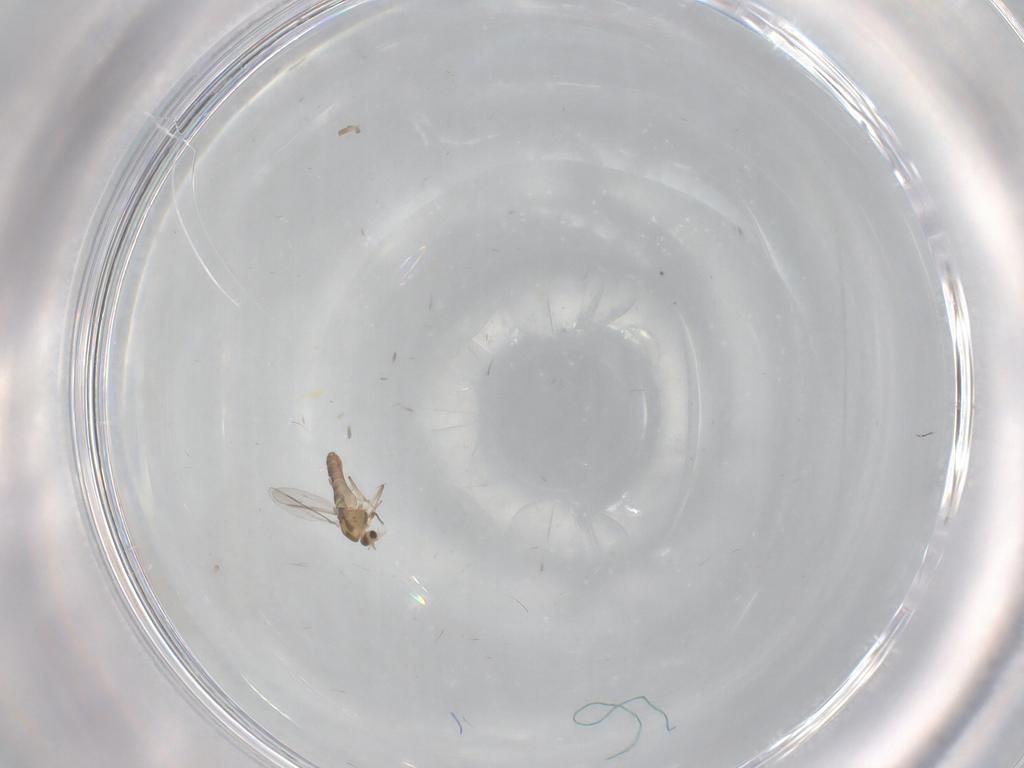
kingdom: Animalia
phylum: Arthropoda
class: Insecta
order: Diptera
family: Chironomidae
